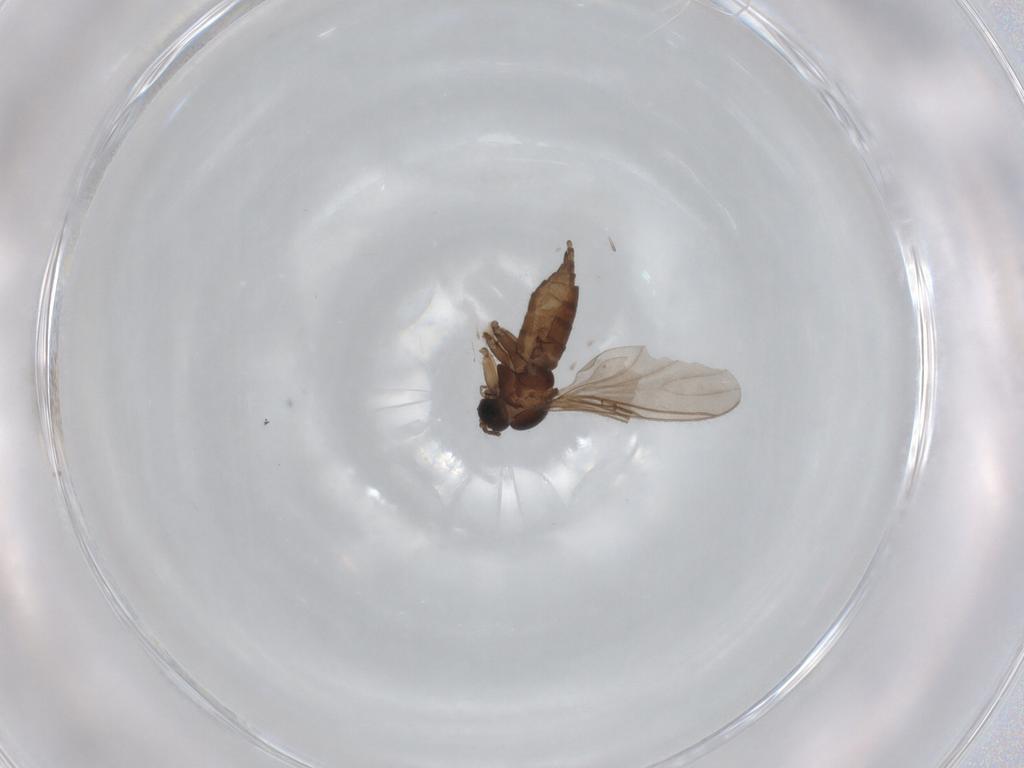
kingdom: Animalia
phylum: Arthropoda
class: Insecta
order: Diptera
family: Sciaridae
